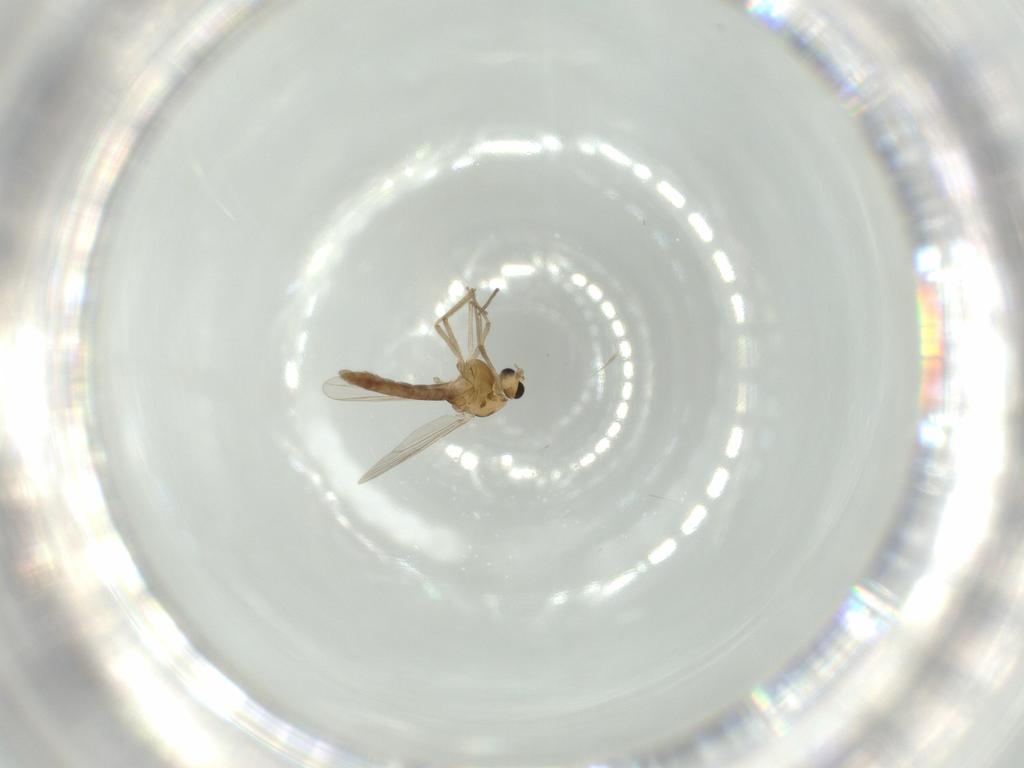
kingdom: Animalia
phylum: Arthropoda
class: Insecta
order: Diptera
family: Chironomidae
